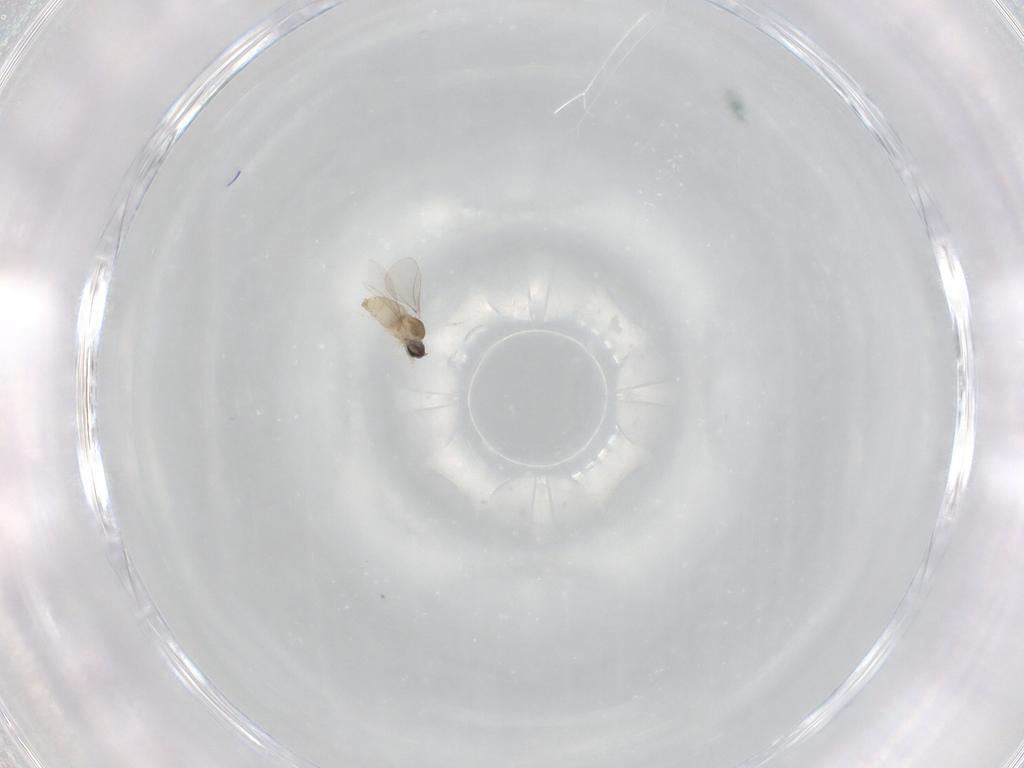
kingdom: Animalia
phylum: Arthropoda
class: Insecta
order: Diptera
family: Cecidomyiidae
